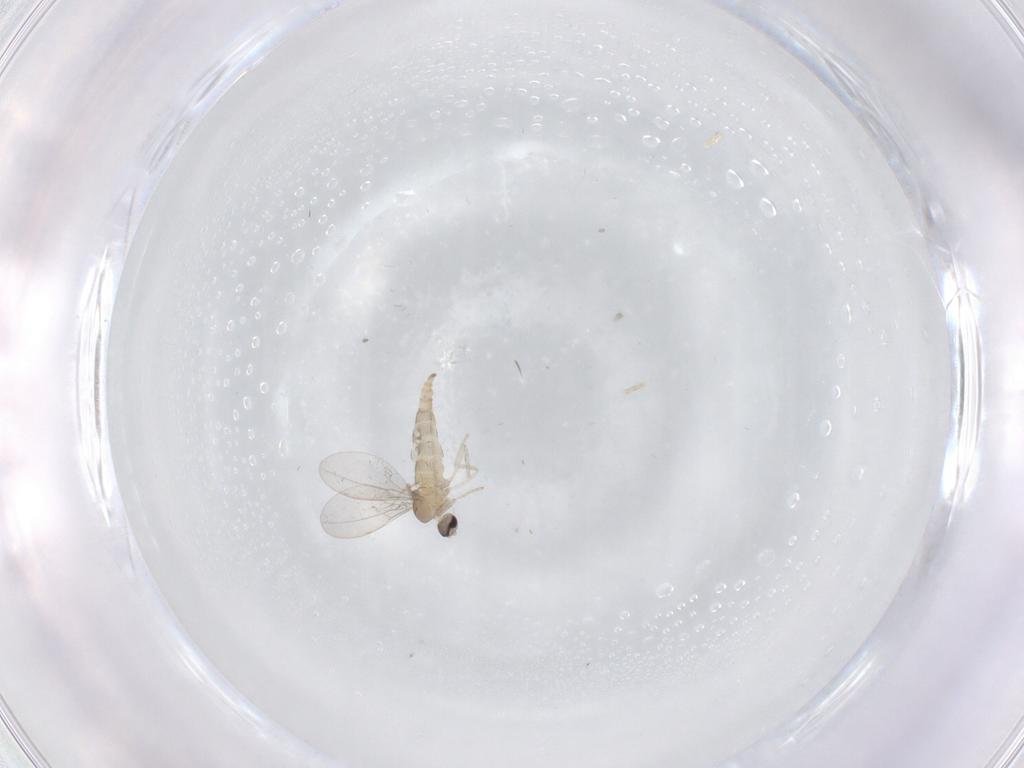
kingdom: Animalia
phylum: Arthropoda
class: Insecta
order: Diptera
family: Cecidomyiidae
